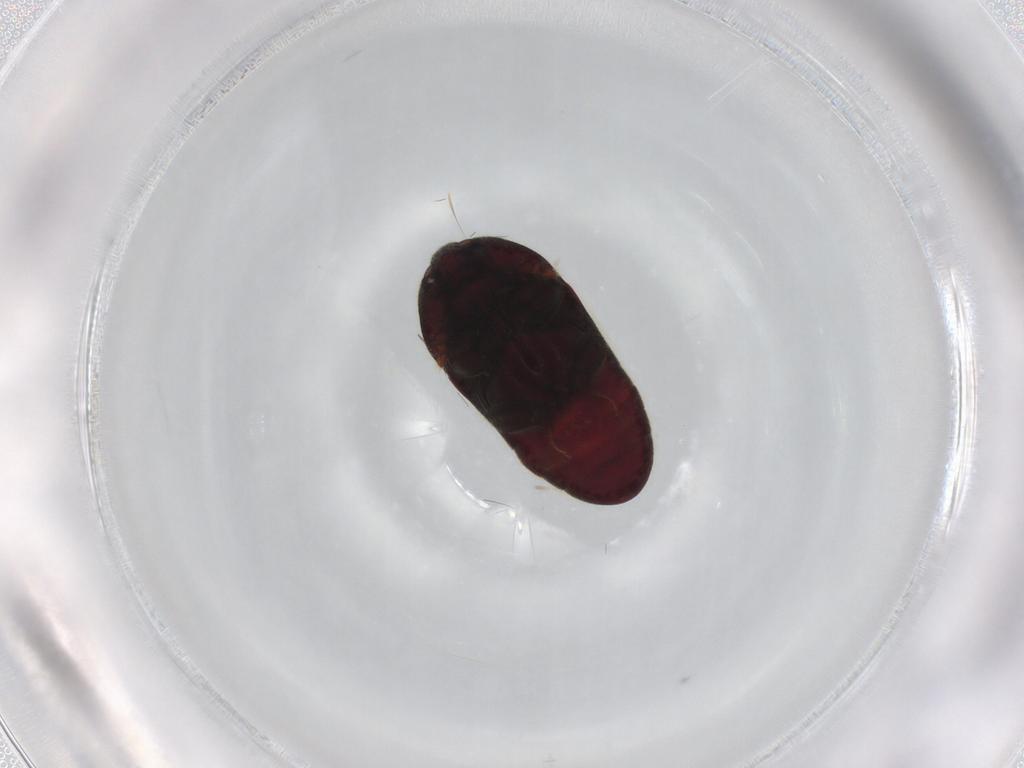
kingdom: Animalia
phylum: Arthropoda
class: Insecta
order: Coleoptera
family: Throscidae
